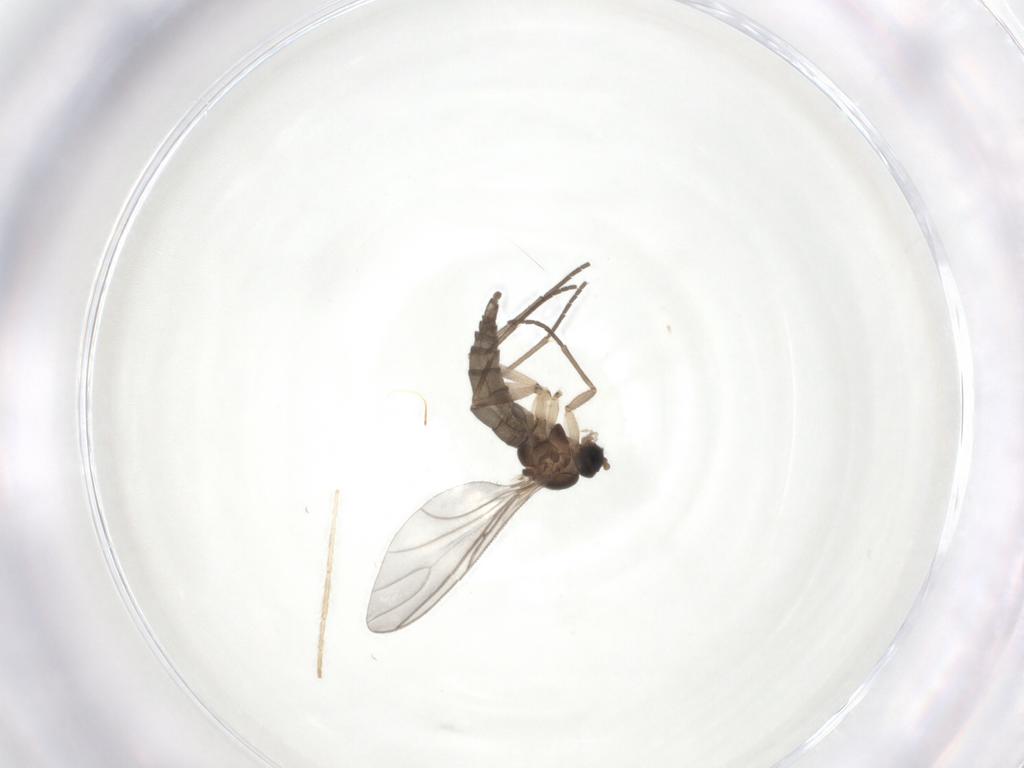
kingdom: Animalia
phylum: Arthropoda
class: Insecta
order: Diptera
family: Sciaridae
